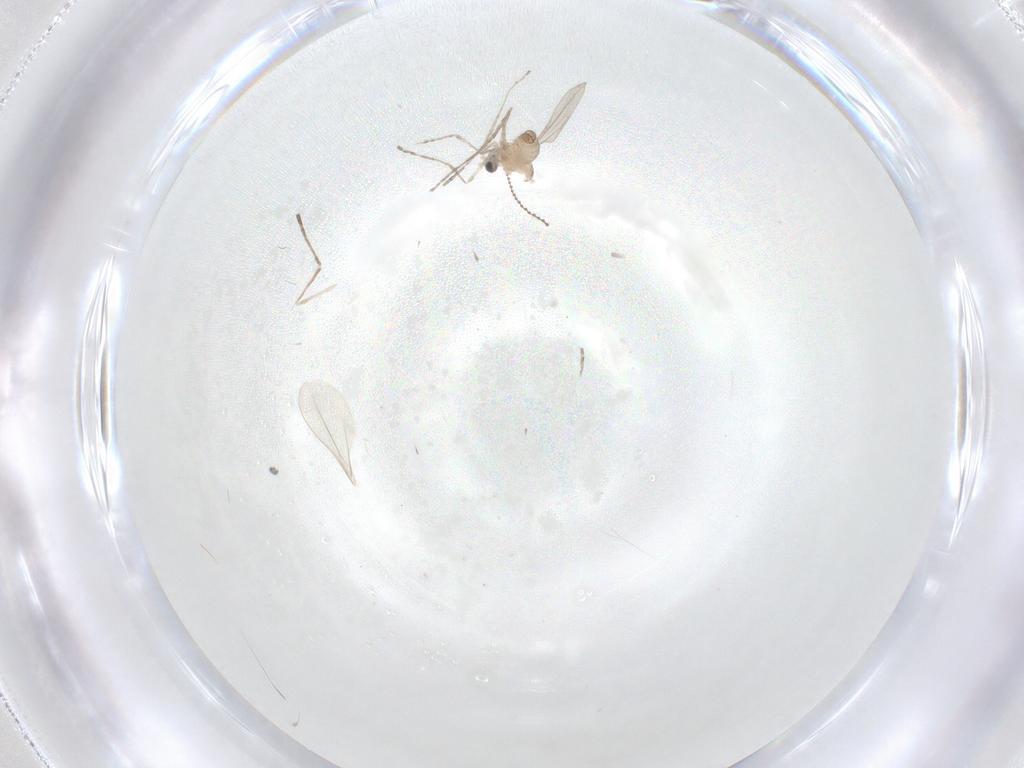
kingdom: Animalia
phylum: Arthropoda
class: Insecta
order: Diptera
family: Cecidomyiidae
